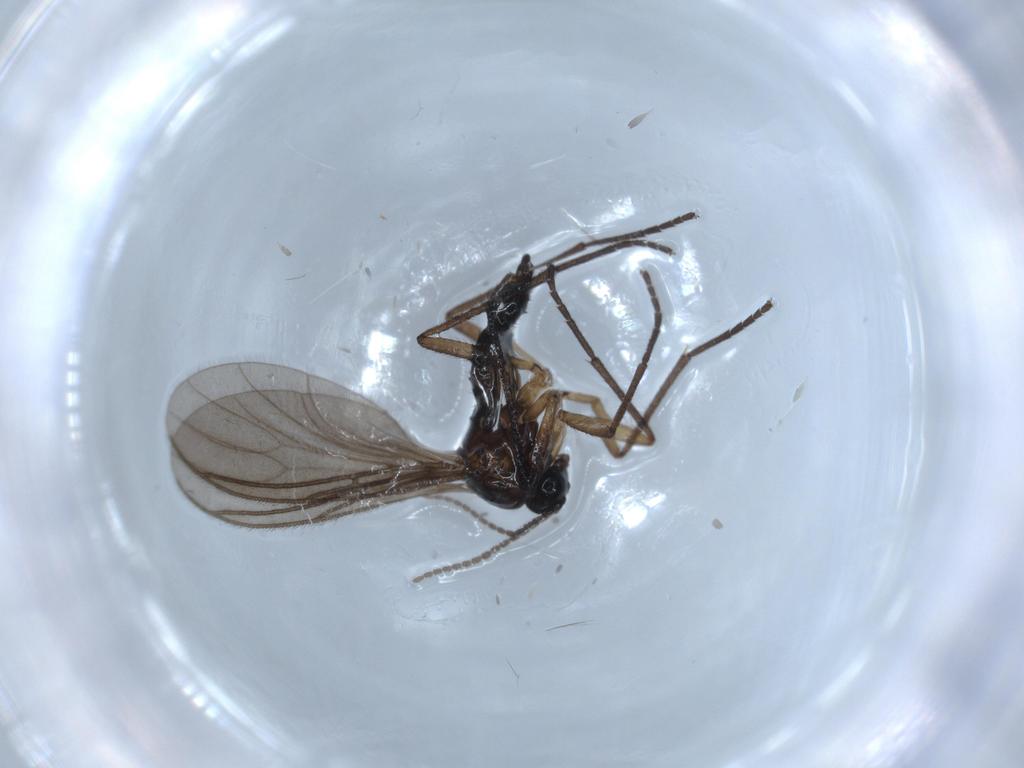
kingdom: Animalia
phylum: Arthropoda
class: Insecta
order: Diptera
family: Sciaridae
